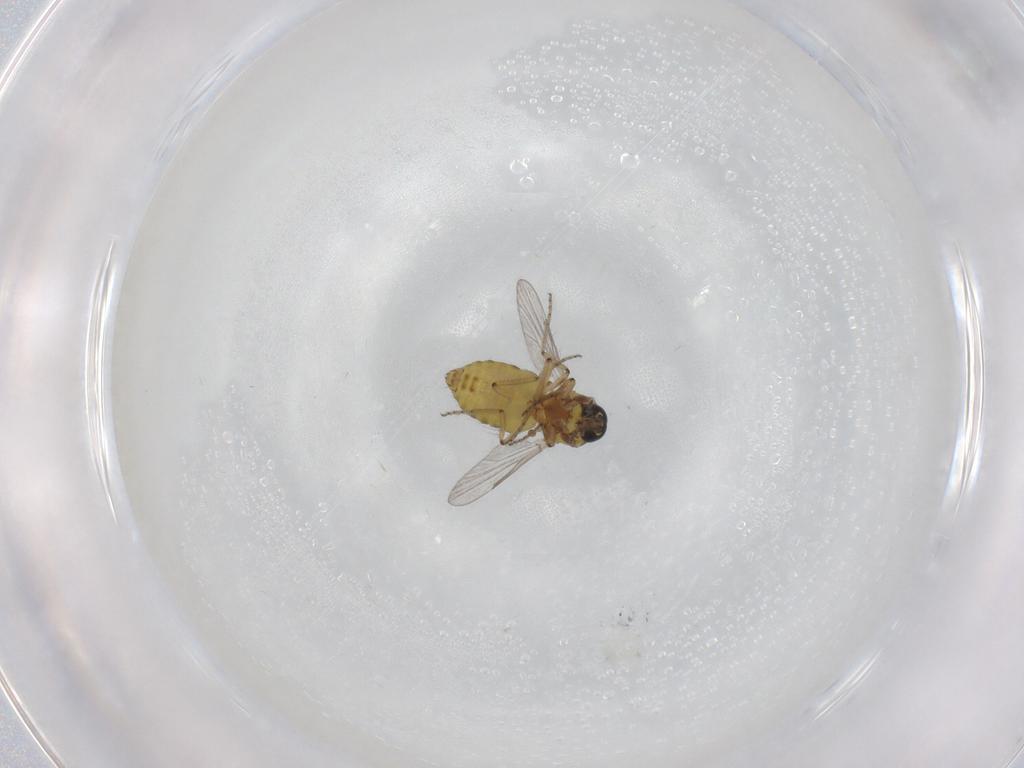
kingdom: Animalia
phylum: Arthropoda
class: Insecta
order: Diptera
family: Ceratopogonidae
